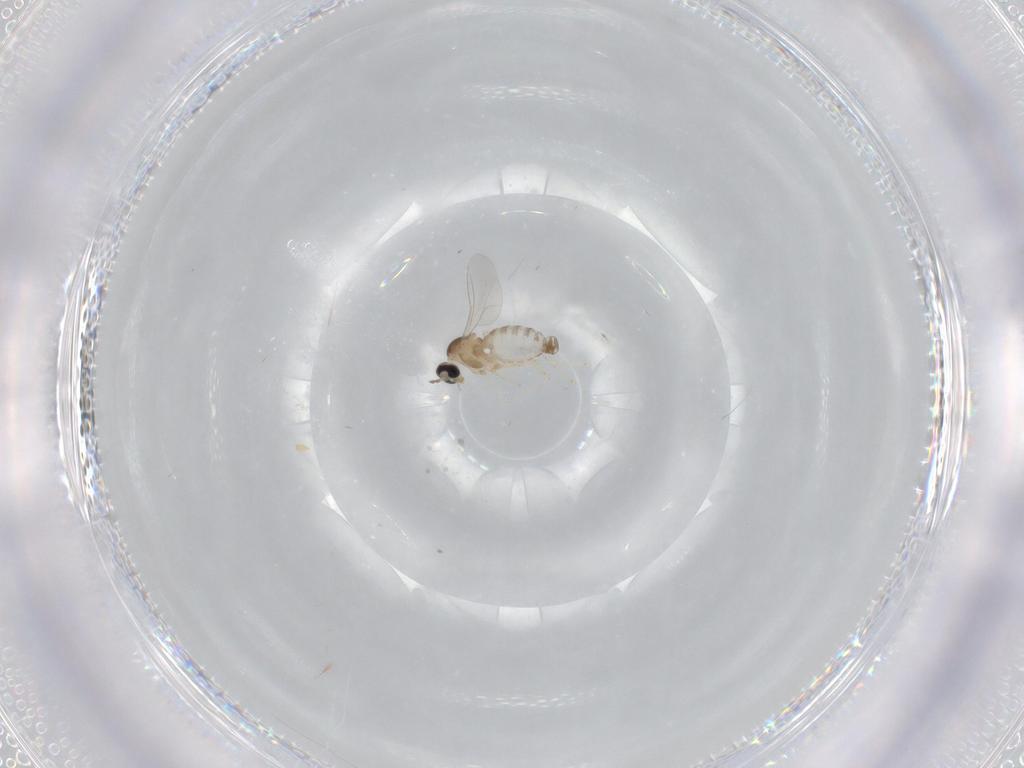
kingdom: Animalia
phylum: Arthropoda
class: Insecta
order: Diptera
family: Cecidomyiidae
